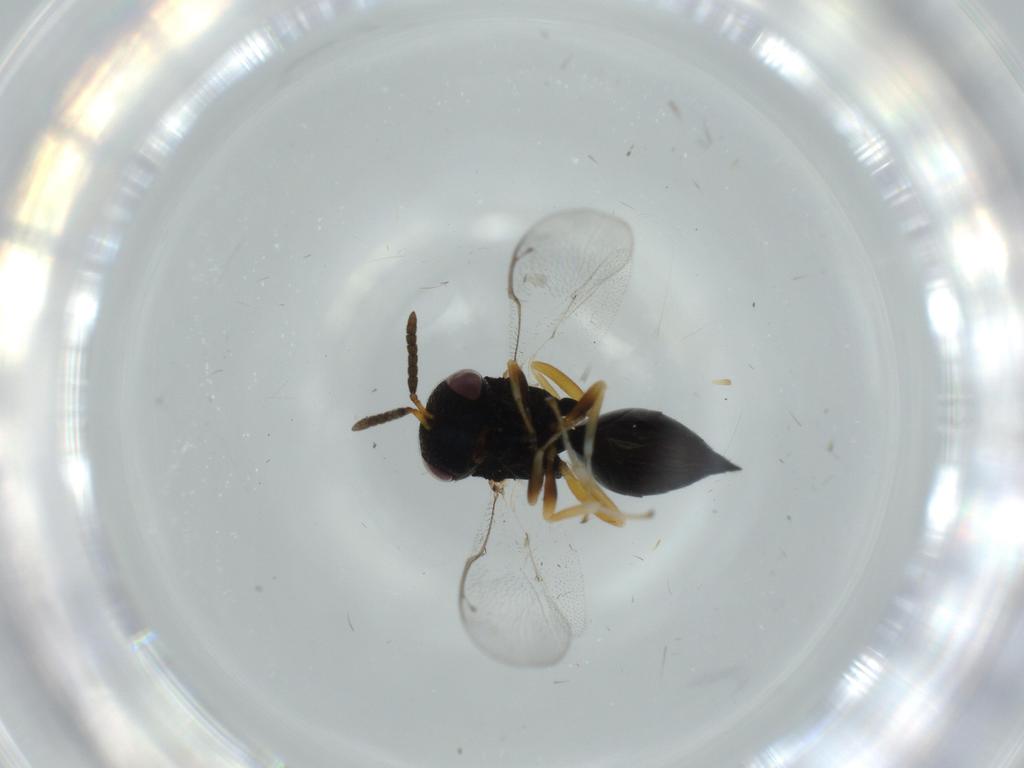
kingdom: Animalia
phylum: Arthropoda
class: Insecta
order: Hymenoptera
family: Pteromalidae
